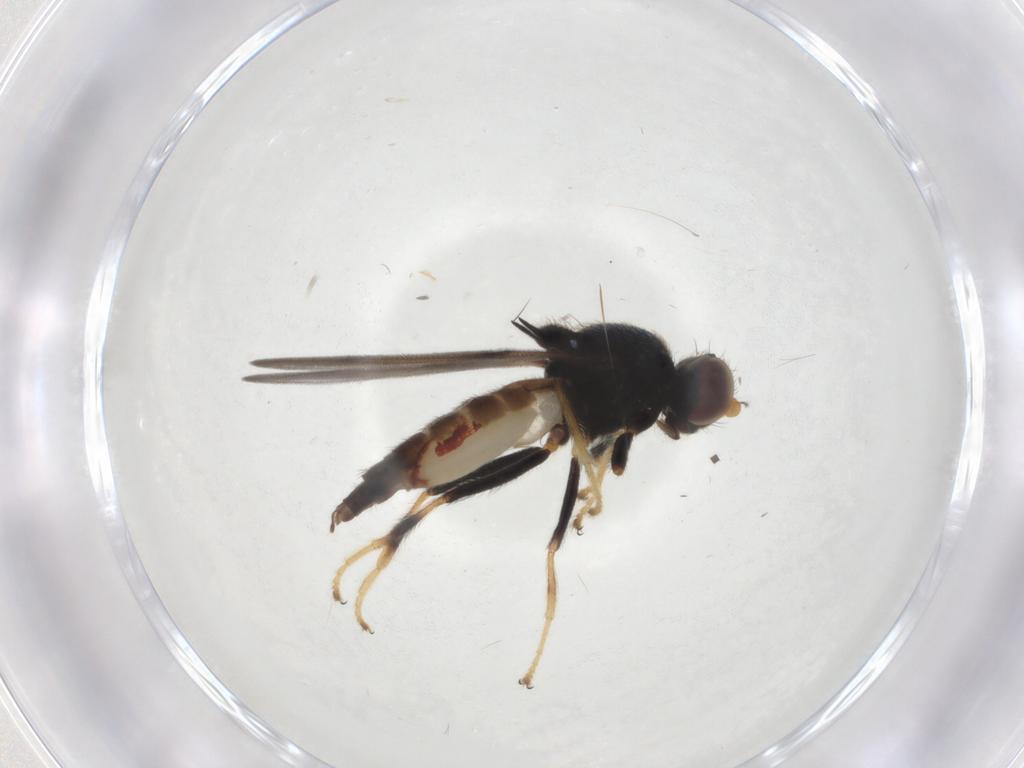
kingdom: Animalia
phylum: Arthropoda
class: Insecta
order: Diptera
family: Chloropidae
